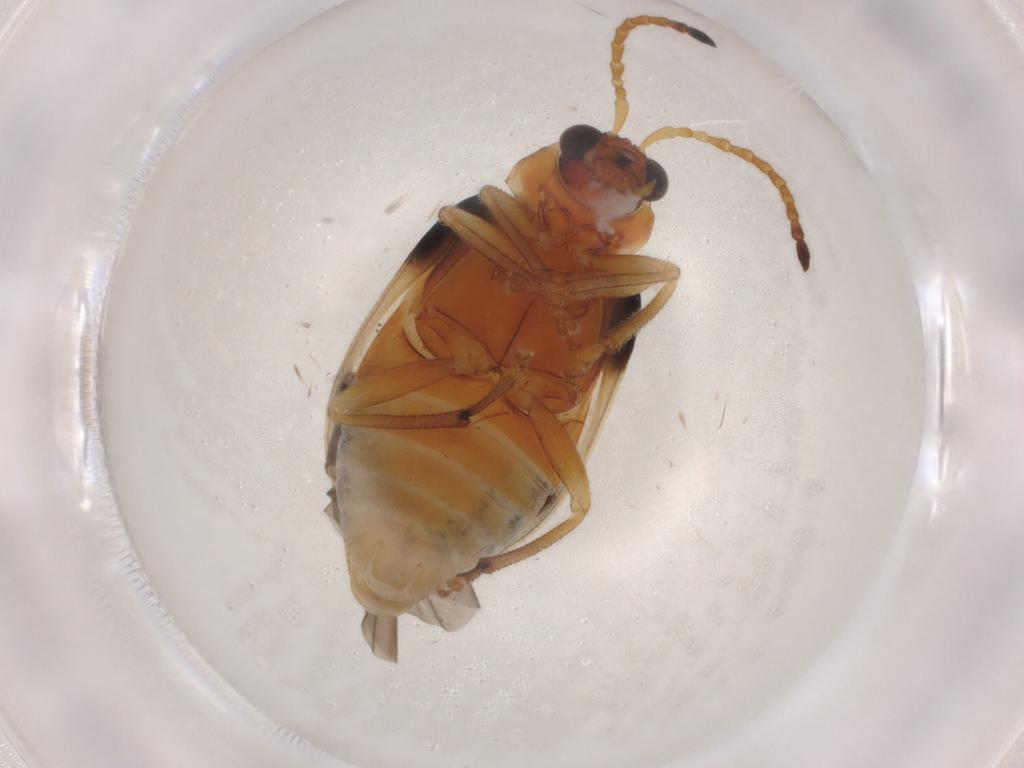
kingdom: Animalia
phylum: Arthropoda
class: Insecta
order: Coleoptera
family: Chrysomelidae
